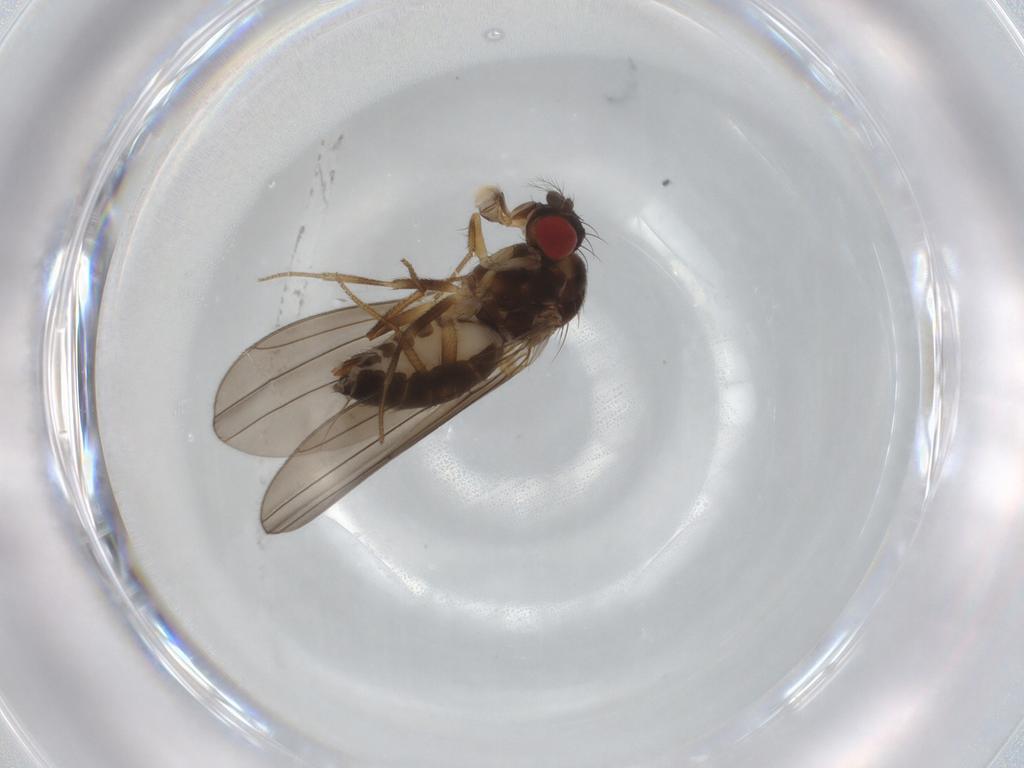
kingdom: Animalia
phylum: Arthropoda
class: Insecta
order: Diptera
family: Drosophilidae
